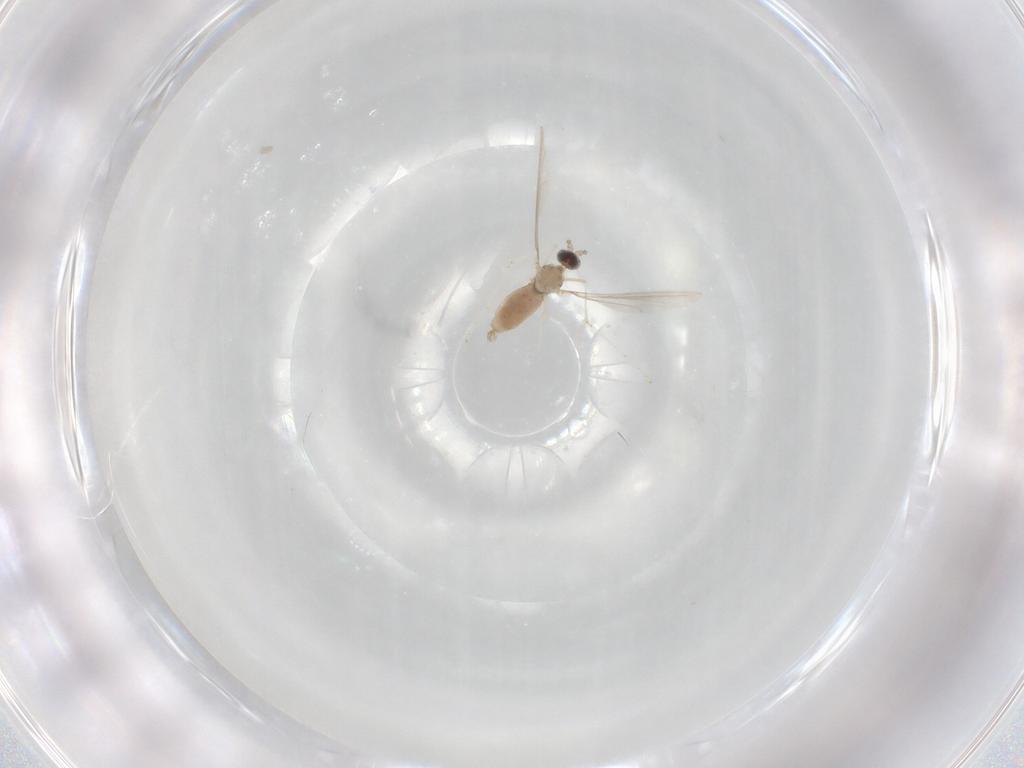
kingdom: Animalia
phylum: Arthropoda
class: Insecta
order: Diptera
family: Cecidomyiidae
